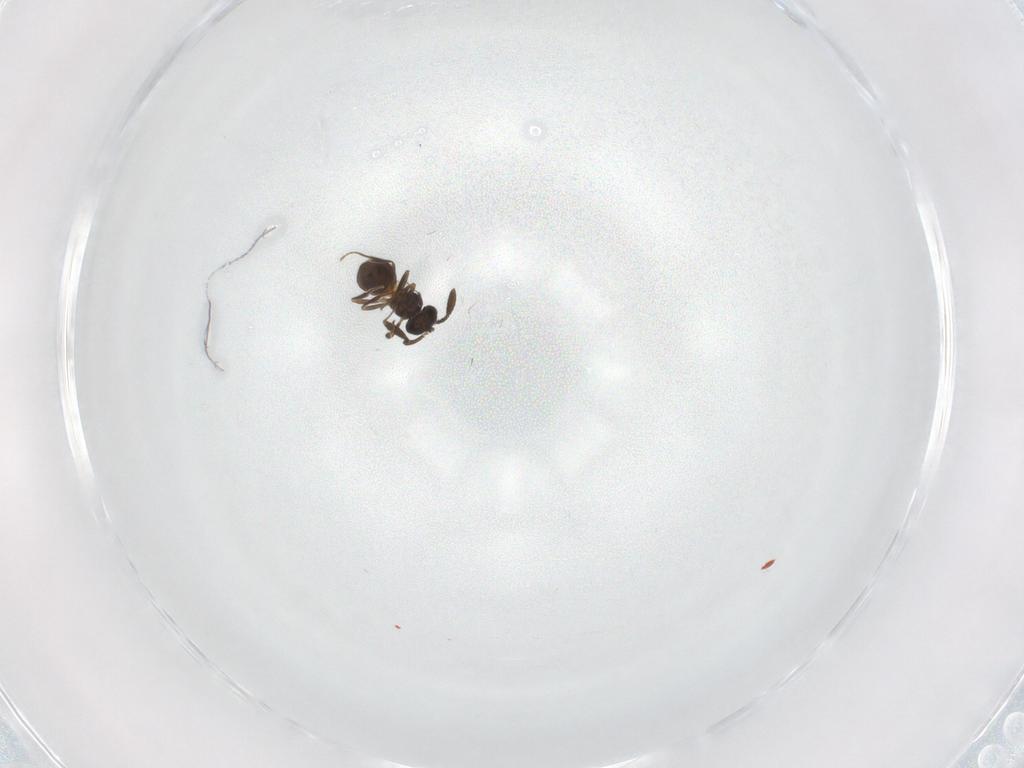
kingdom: Animalia
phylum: Arthropoda
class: Insecta
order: Hymenoptera
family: Scelionidae
